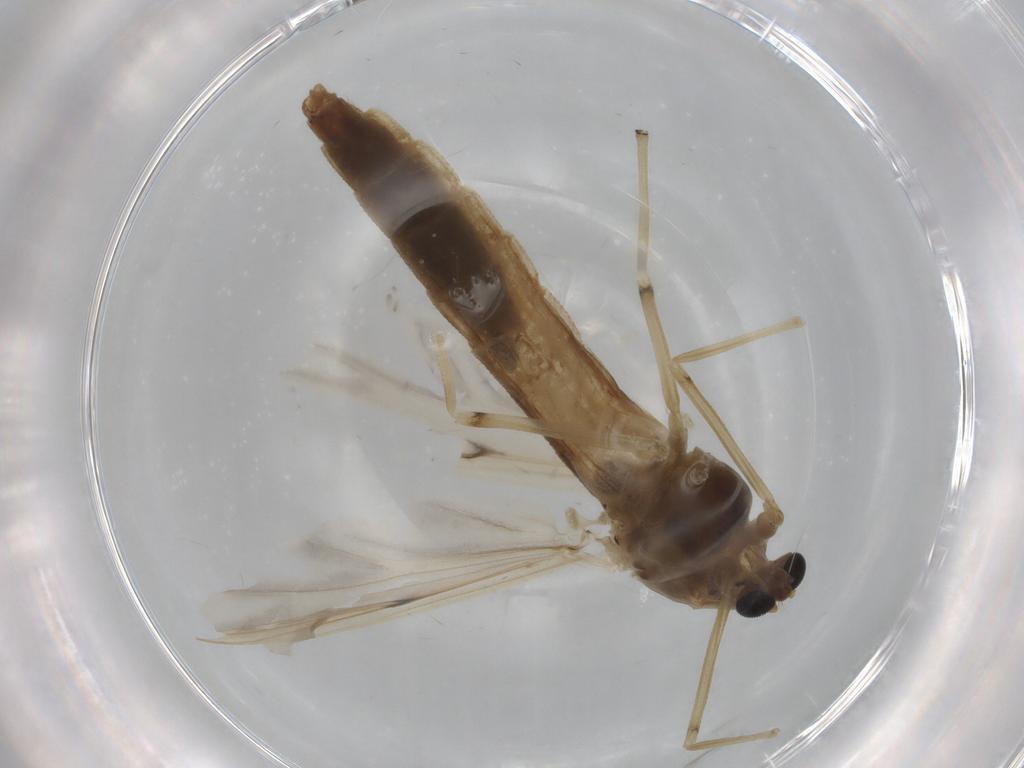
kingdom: Animalia
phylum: Arthropoda
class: Insecta
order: Diptera
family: Chironomidae
